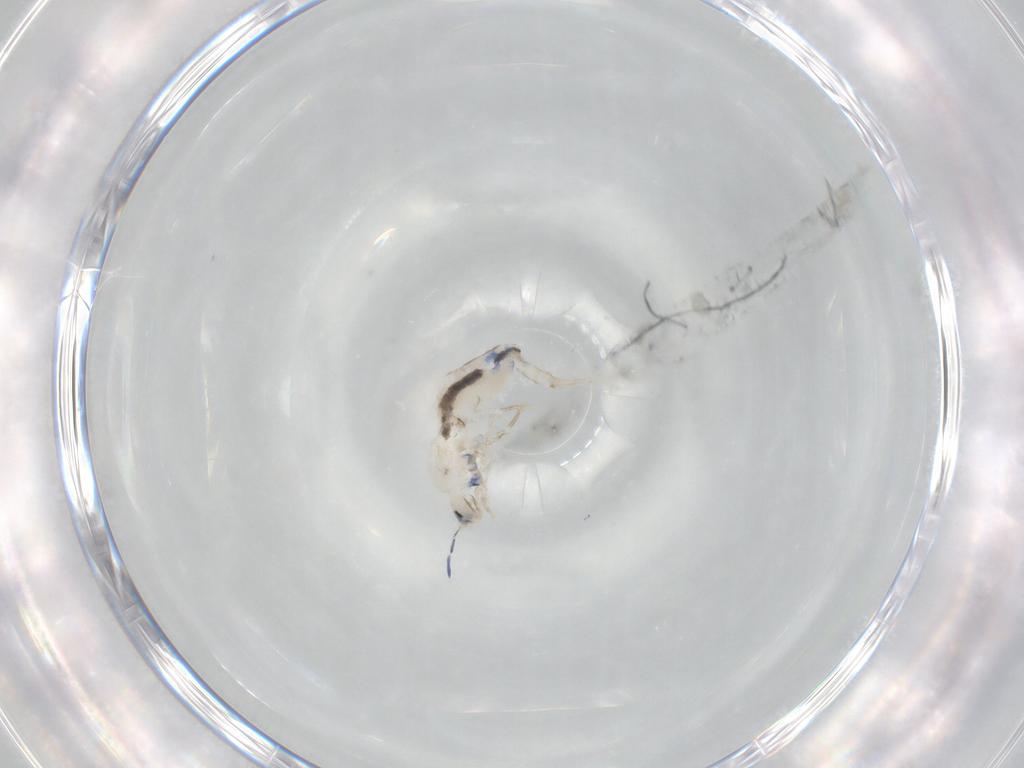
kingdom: Animalia
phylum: Arthropoda
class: Collembola
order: Entomobryomorpha
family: Entomobryidae
